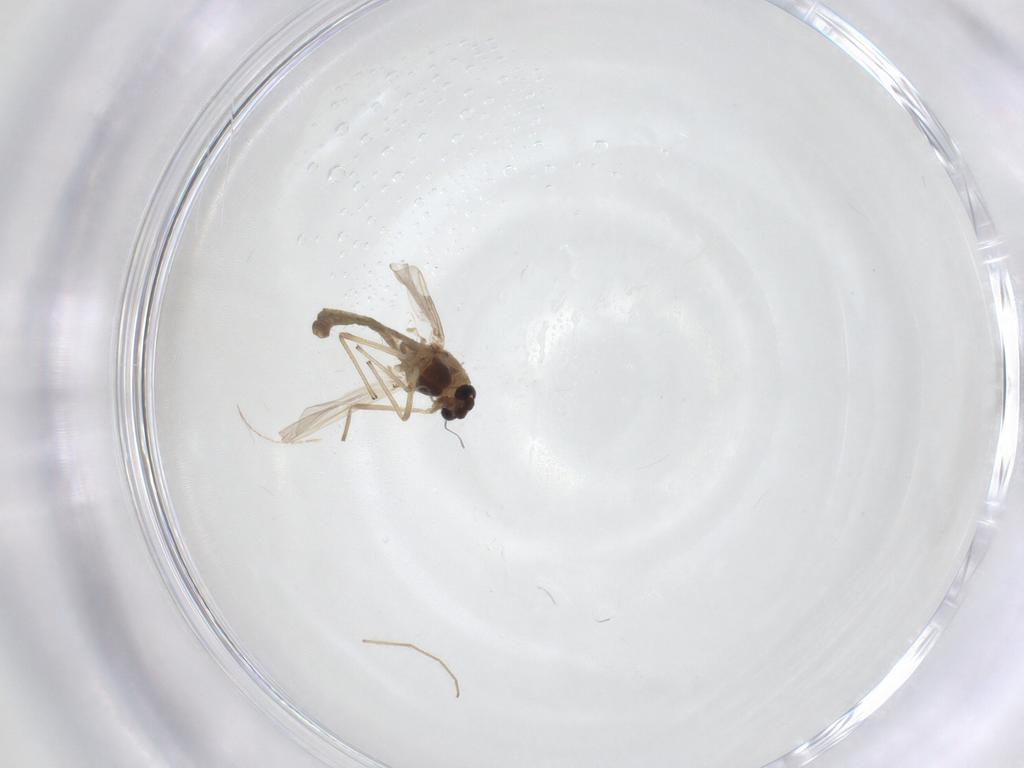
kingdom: Animalia
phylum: Arthropoda
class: Insecta
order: Diptera
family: Chironomidae
